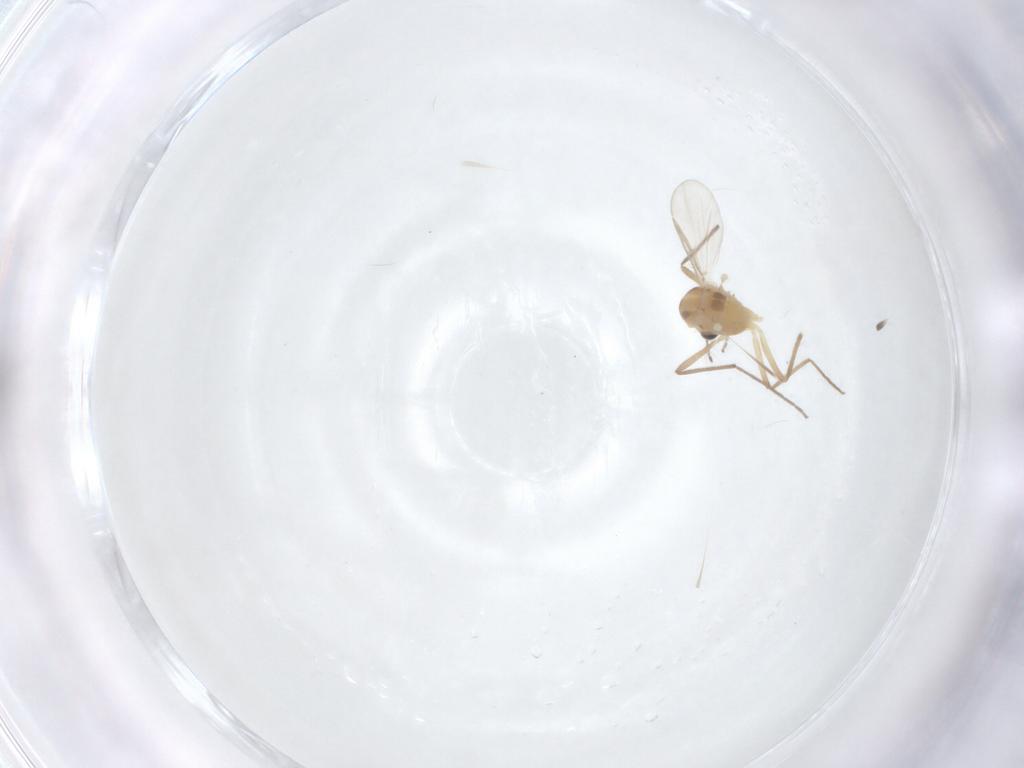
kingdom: Animalia
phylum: Arthropoda
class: Insecta
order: Diptera
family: Chironomidae
